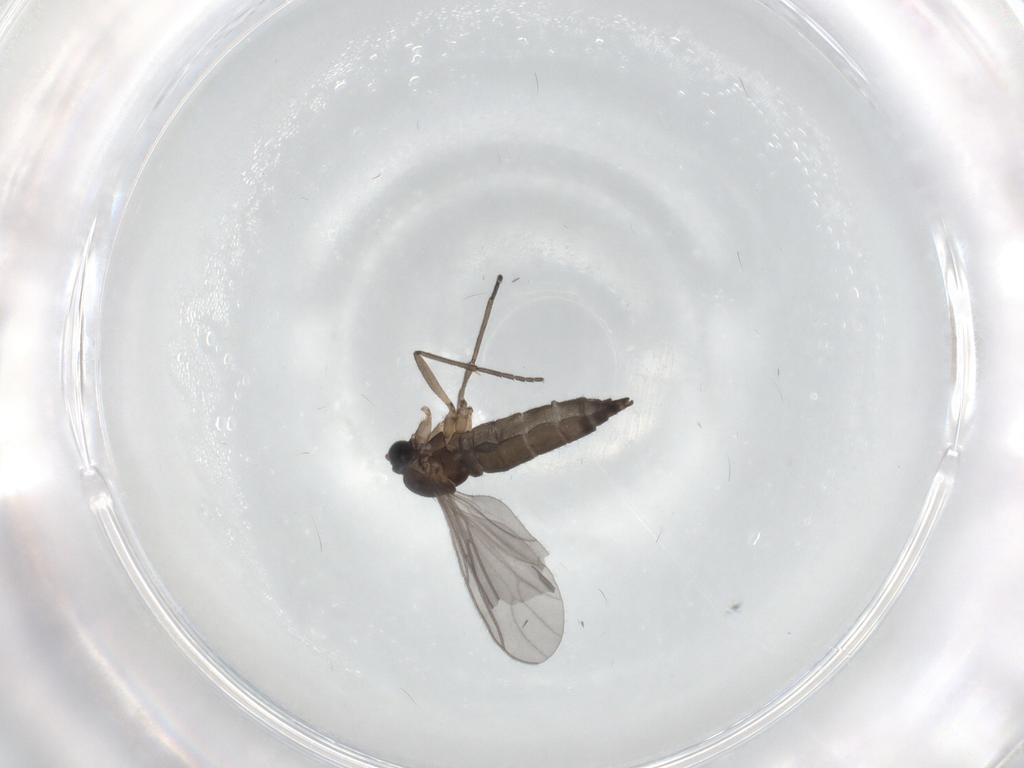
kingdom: Animalia
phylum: Arthropoda
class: Insecta
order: Diptera
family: Sciaridae
